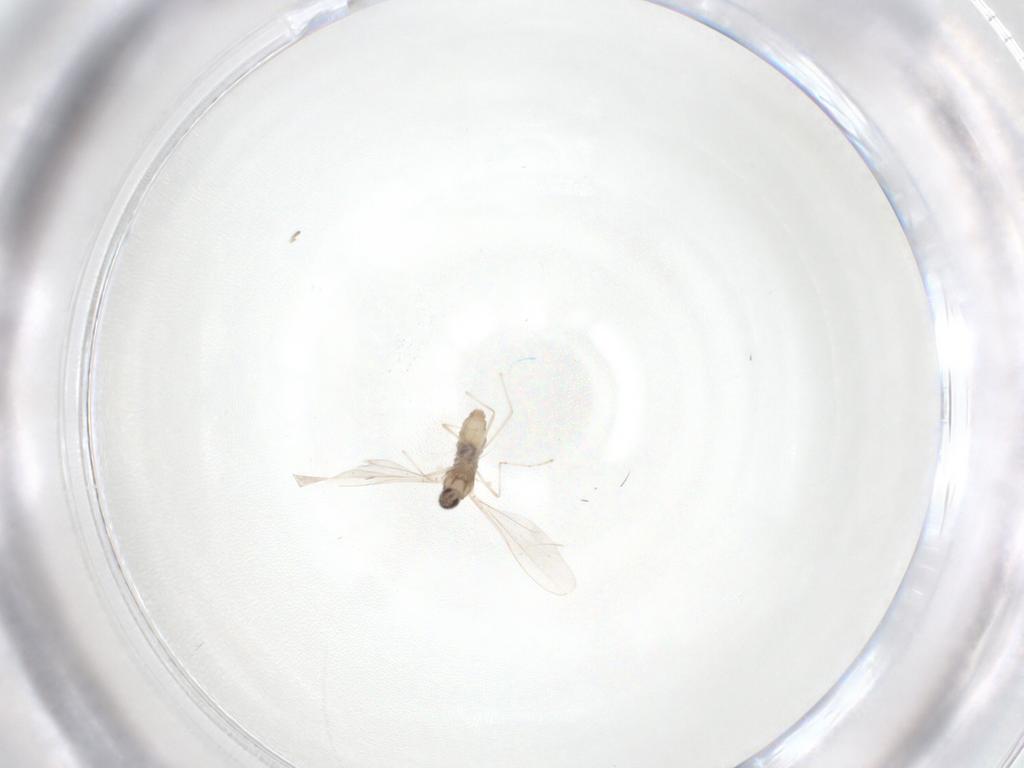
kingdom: Animalia
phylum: Arthropoda
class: Insecta
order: Diptera
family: Cecidomyiidae
